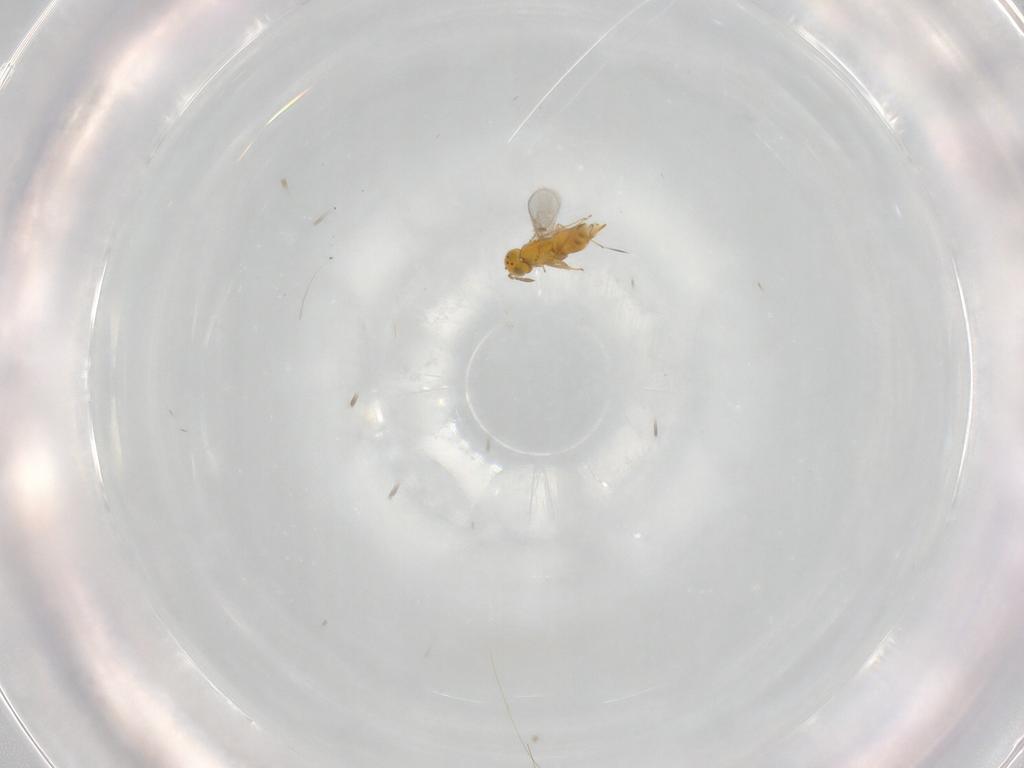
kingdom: Animalia
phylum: Arthropoda
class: Insecta
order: Hymenoptera
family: Aphelinidae
